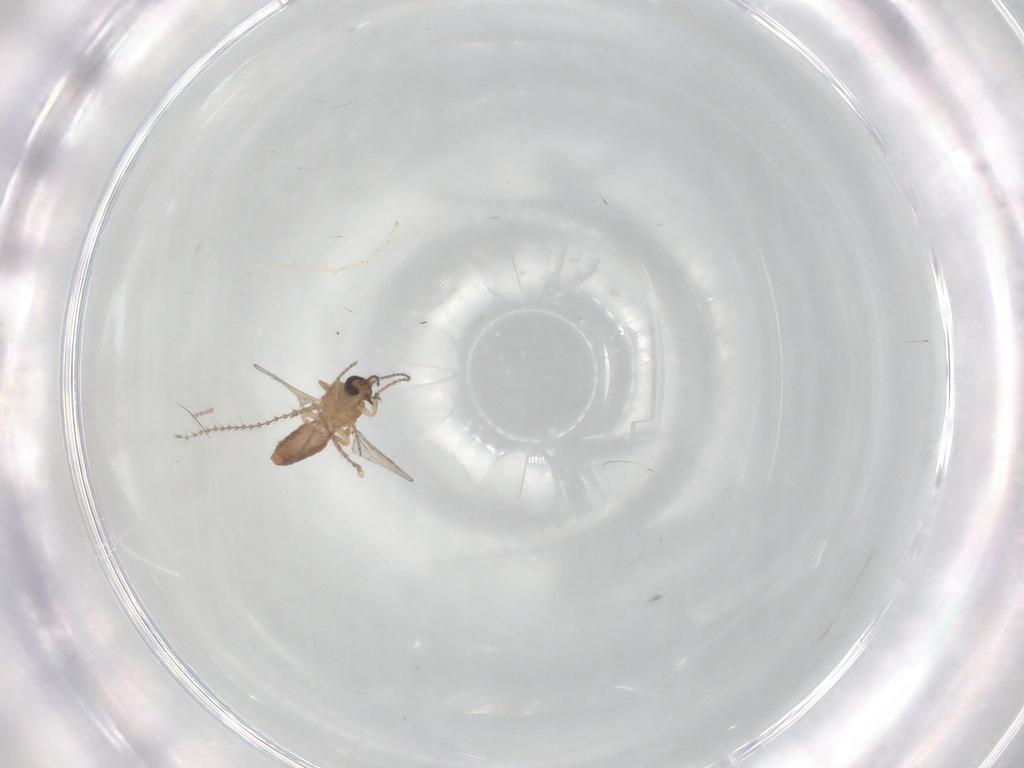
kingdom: Animalia
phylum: Arthropoda
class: Insecta
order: Diptera
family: Ceratopogonidae
